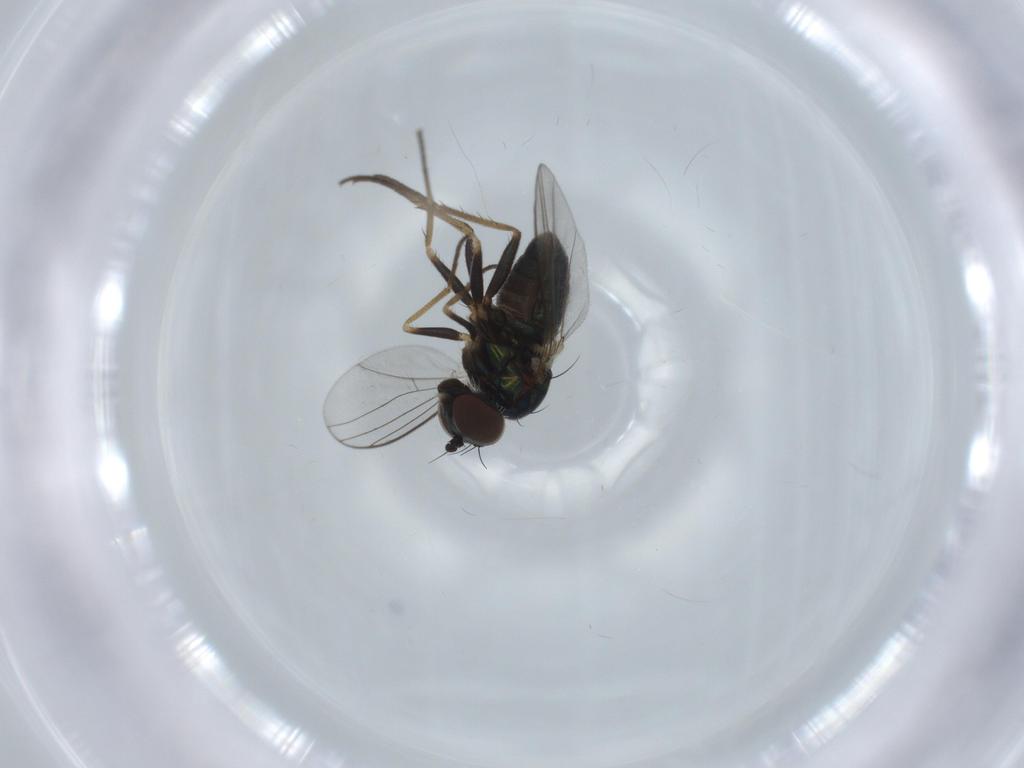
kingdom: Animalia
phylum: Arthropoda
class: Insecta
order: Diptera
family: Dolichopodidae
